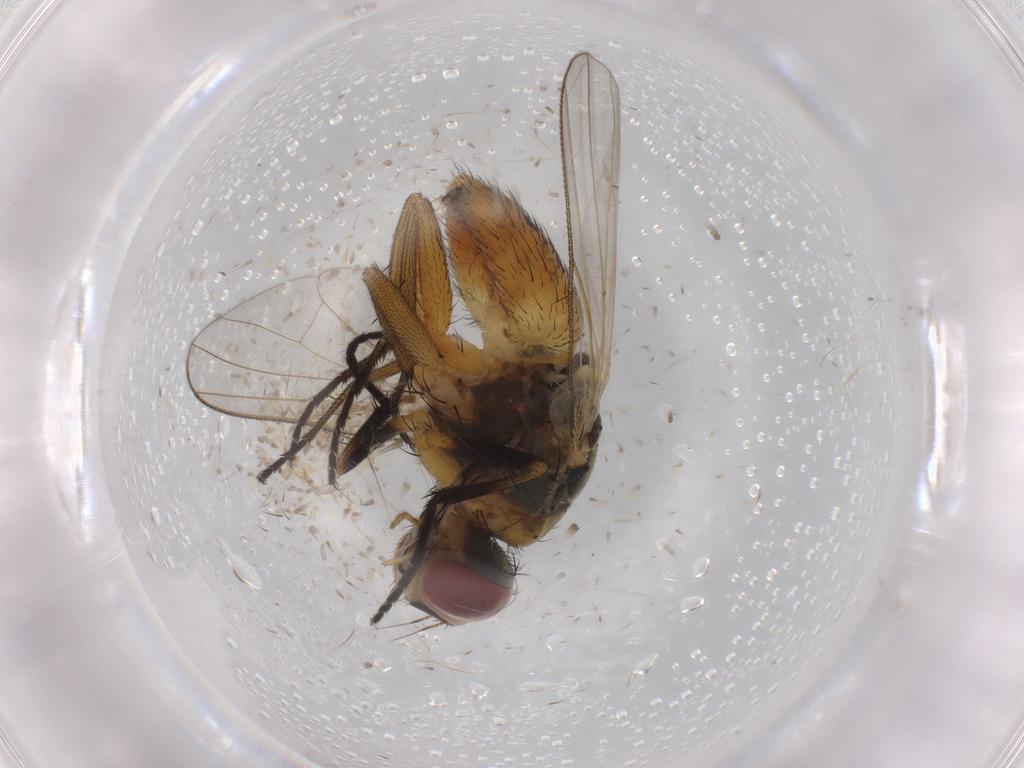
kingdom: Animalia
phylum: Arthropoda
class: Insecta
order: Diptera
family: Muscidae
